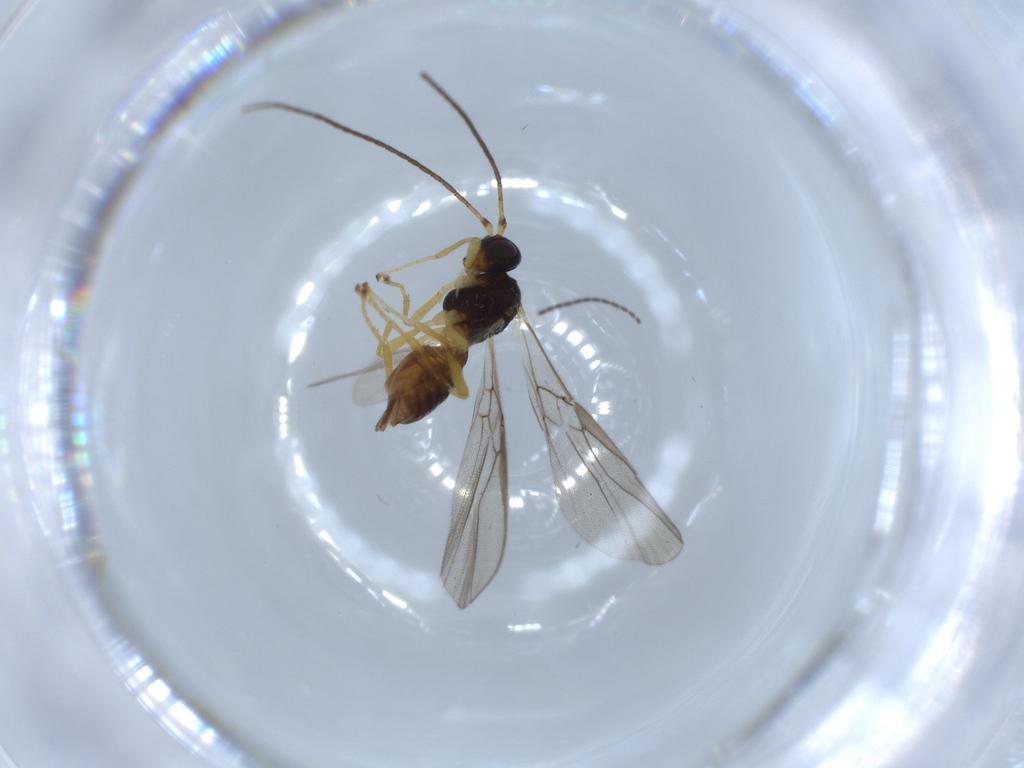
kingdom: Animalia
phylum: Arthropoda
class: Insecta
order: Hymenoptera
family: Braconidae
